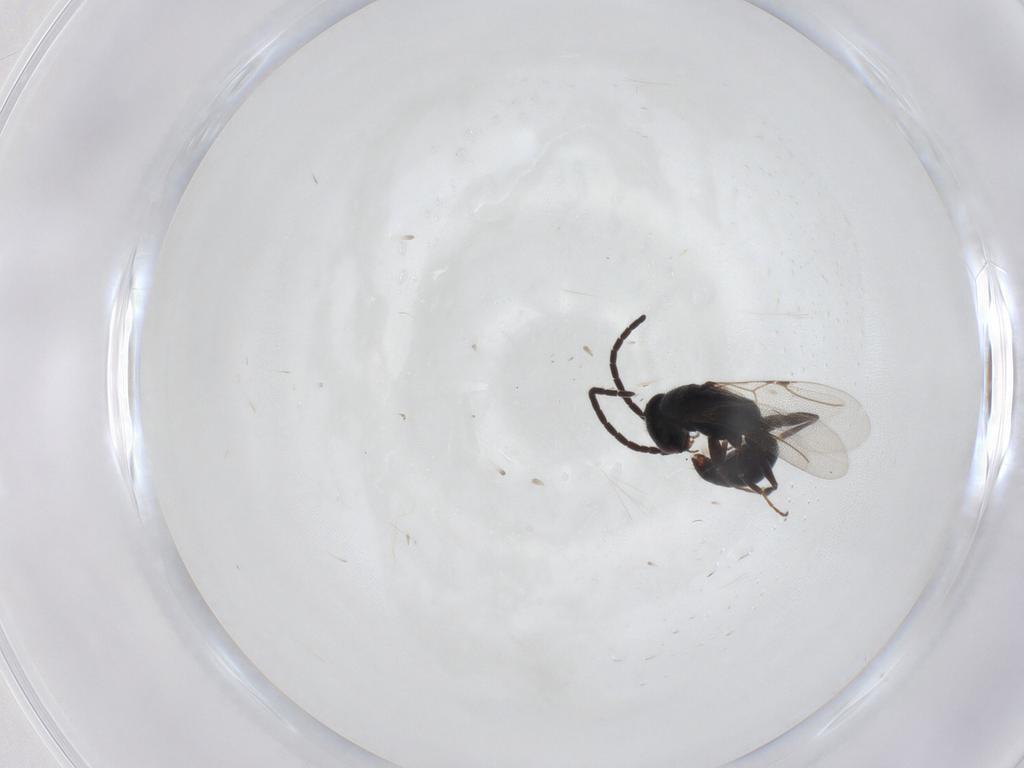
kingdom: Animalia
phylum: Arthropoda
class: Insecta
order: Hymenoptera
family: Bethylidae
